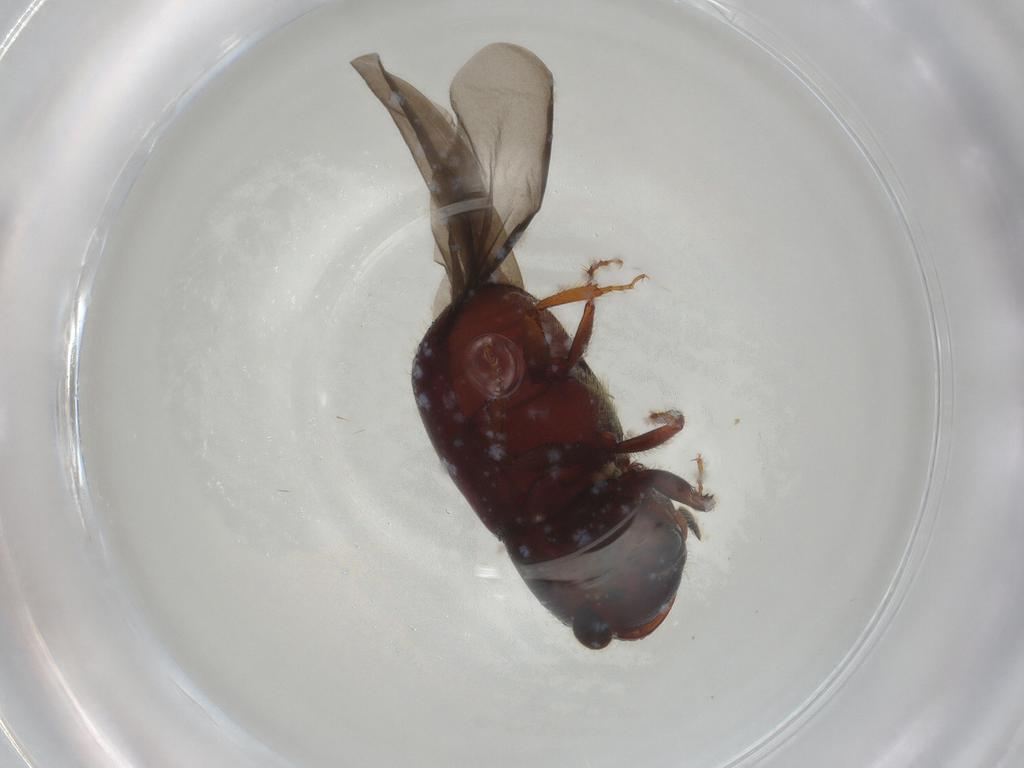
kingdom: Animalia
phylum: Arthropoda
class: Insecta
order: Coleoptera
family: Curculionidae
